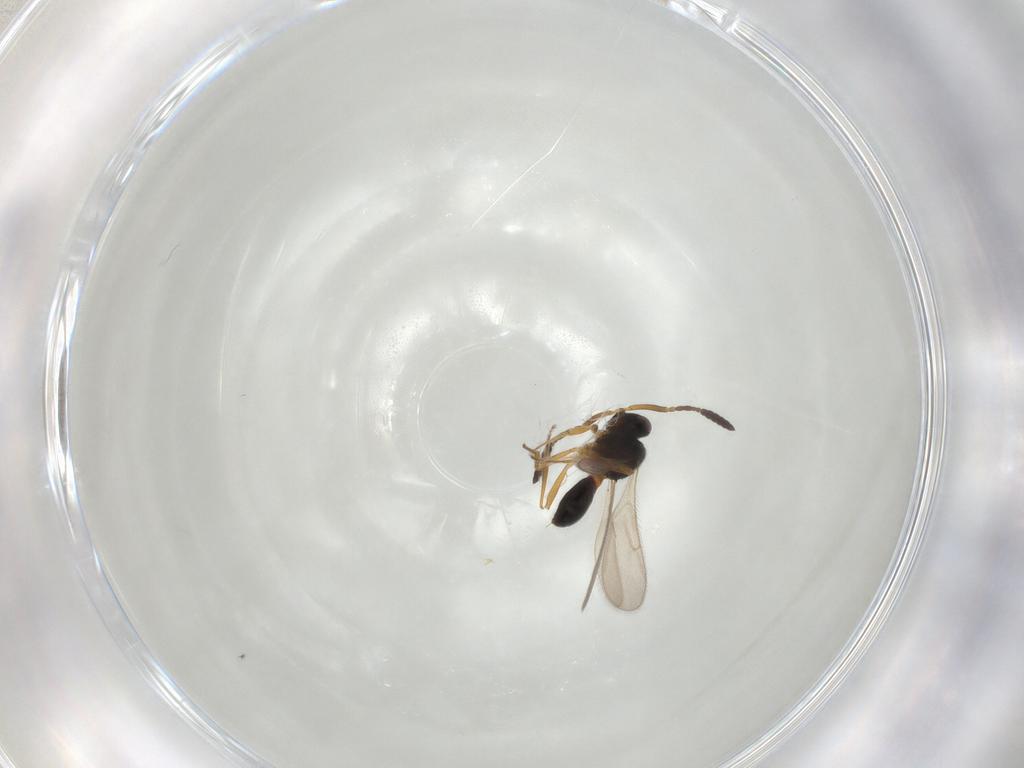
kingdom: Animalia
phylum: Arthropoda
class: Insecta
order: Hymenoptera
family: Scelionidae
